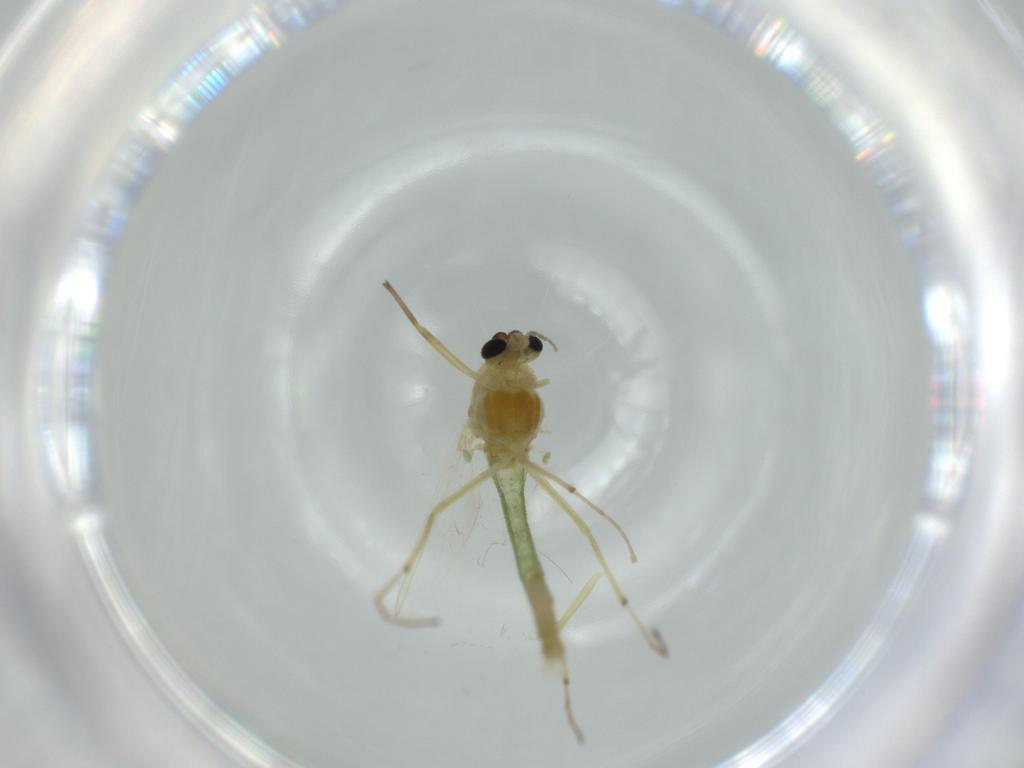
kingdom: Animalia
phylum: Arthropoda
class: Insecta
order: Diptera
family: Chironomidae
